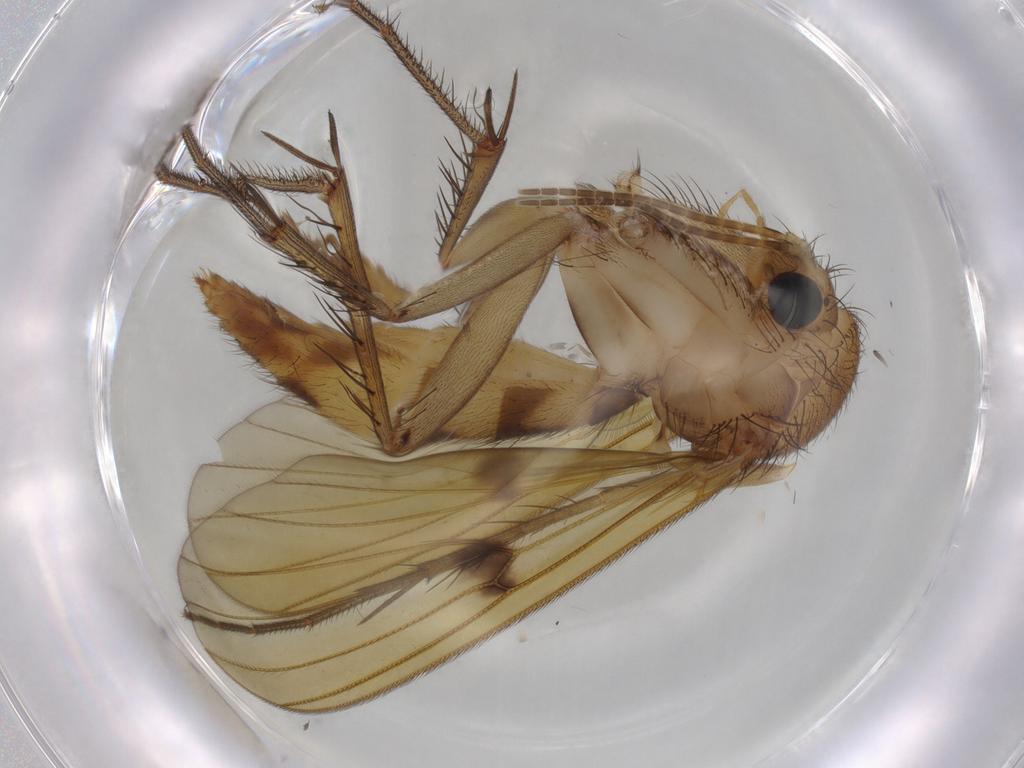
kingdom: Animalia
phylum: Arthropoda
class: Insecta
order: Diptera
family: Sphaeroceridae
